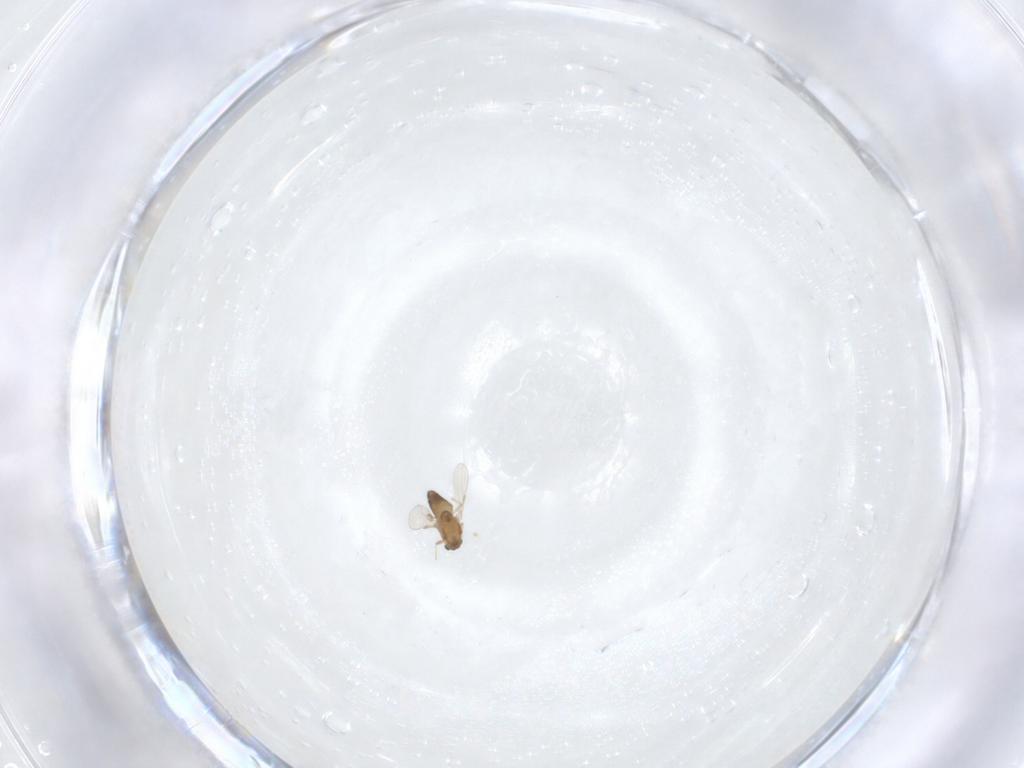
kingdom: Animalia
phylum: Arthropoda
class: Insecta
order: Diptera
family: Chironomidae
